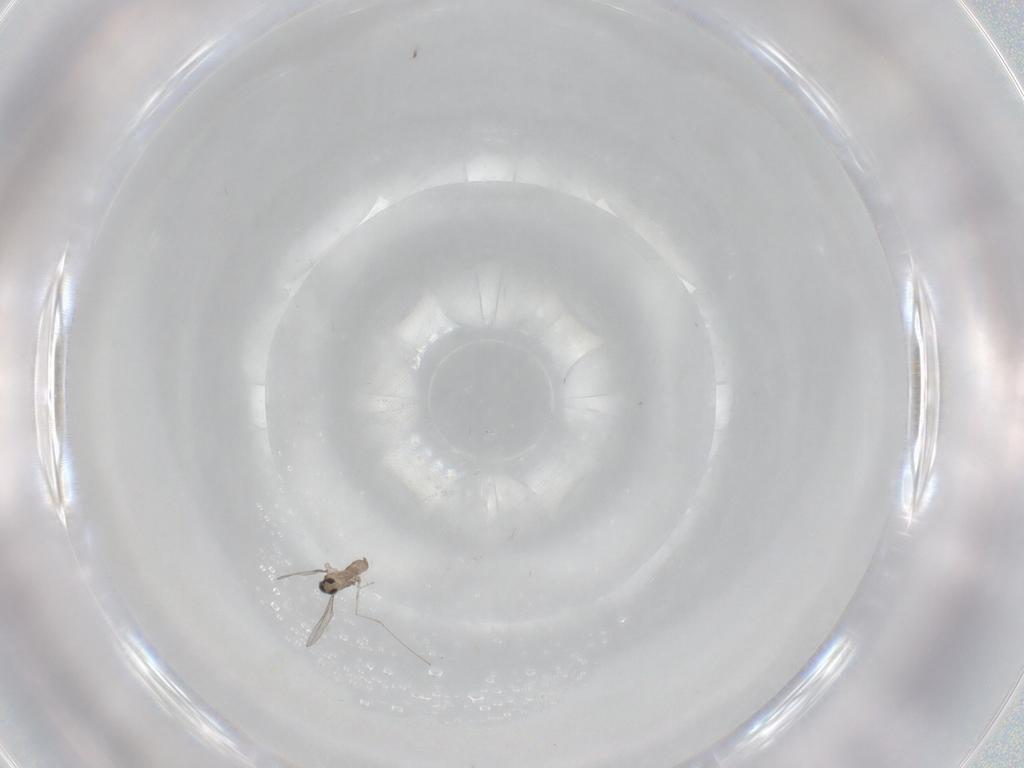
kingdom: Animalia
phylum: Arthropoda
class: Insecta
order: Diptera
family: Cecidomyiidae
